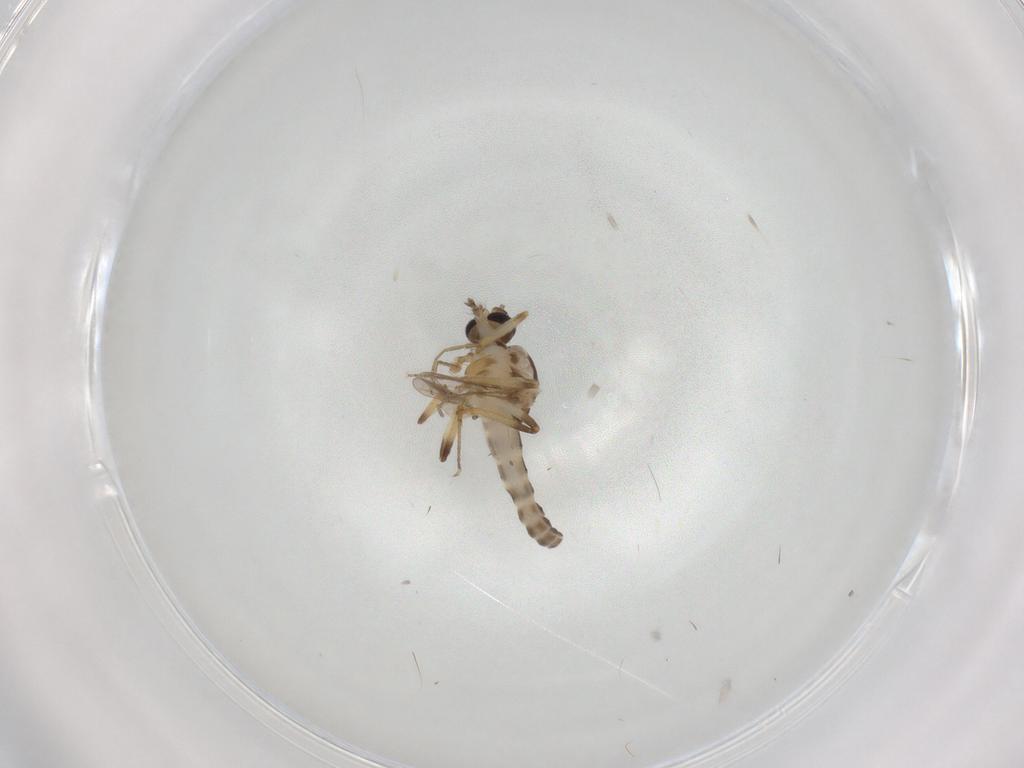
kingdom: Animalia
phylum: Arthropoda
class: Insecta
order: Diptera
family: Ceratopogonidae
